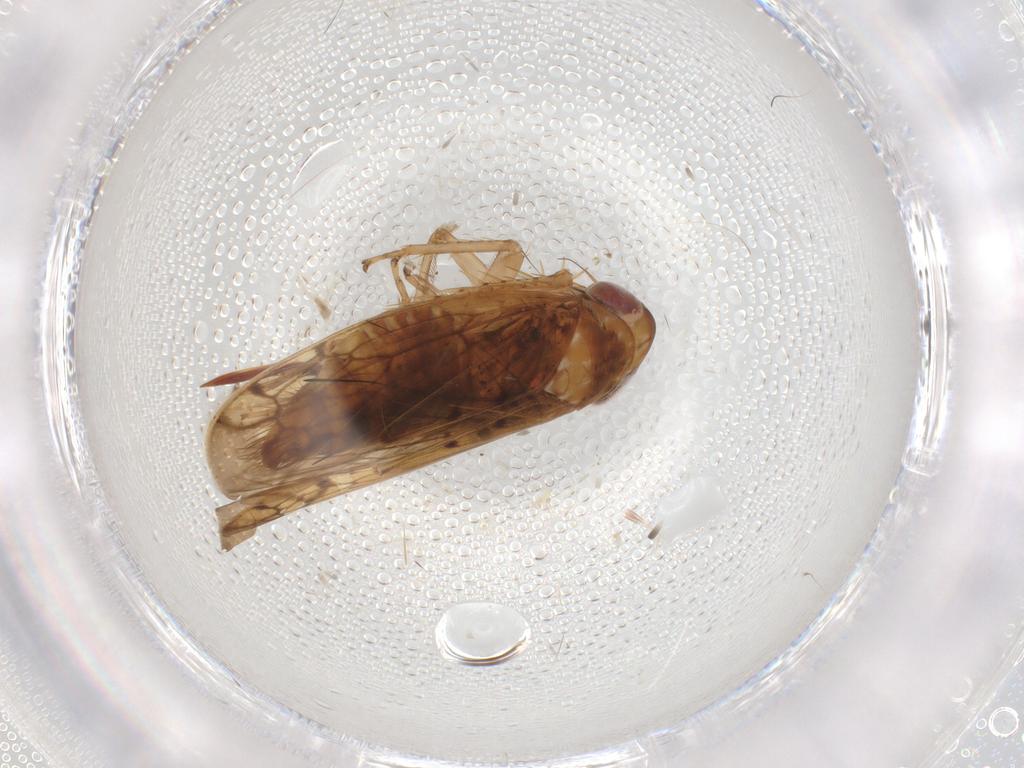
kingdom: Animalia
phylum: Arthropoda
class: Insecta
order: Hemiptera
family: Cicadellidae
